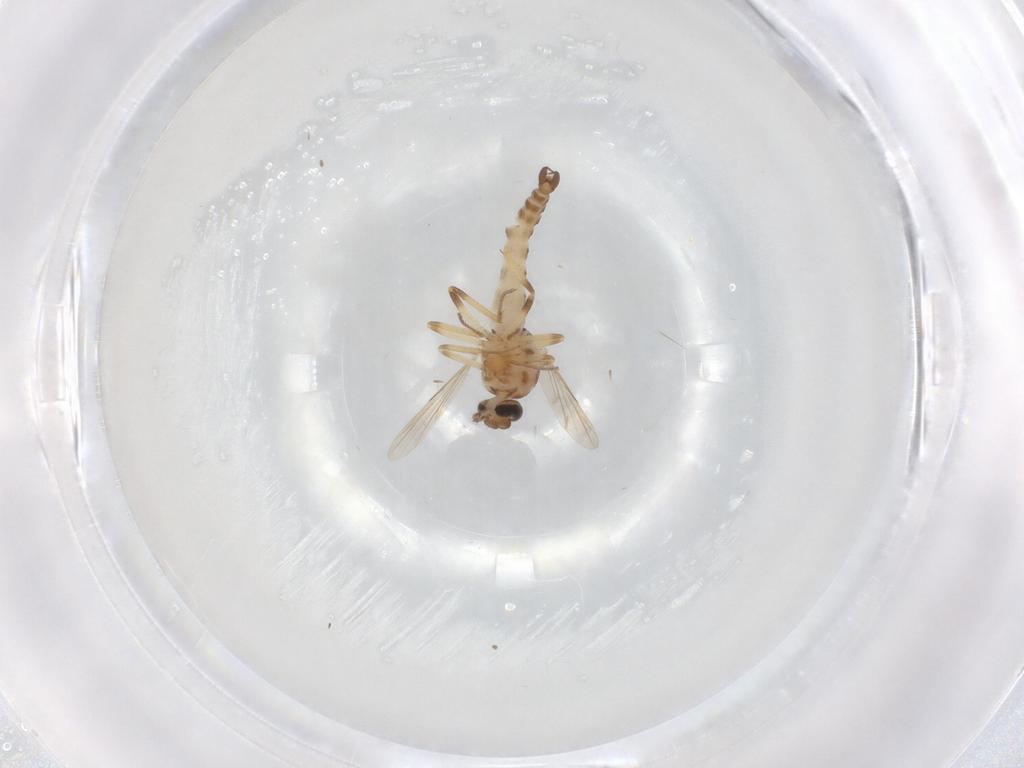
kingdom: Animalia
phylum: Arthropoda
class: Insecta
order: Diptera
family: Ceratopogonidae
